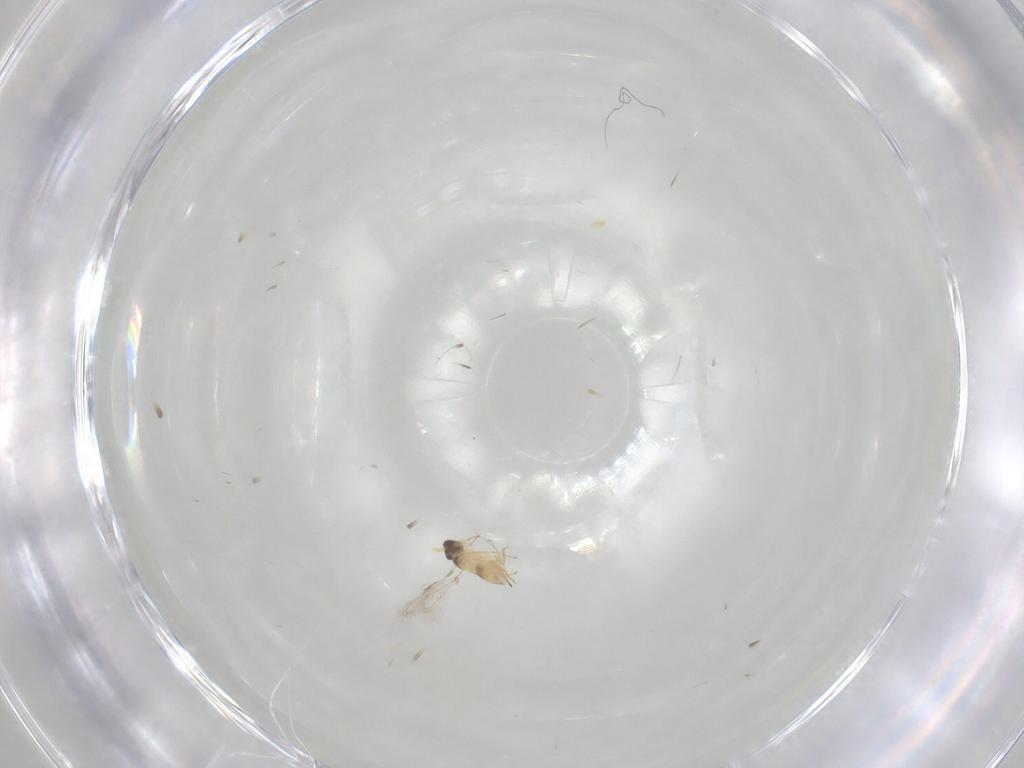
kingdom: Animalia
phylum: Arthropoda
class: Insecta
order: Hymenoptera
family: Mymaridae
